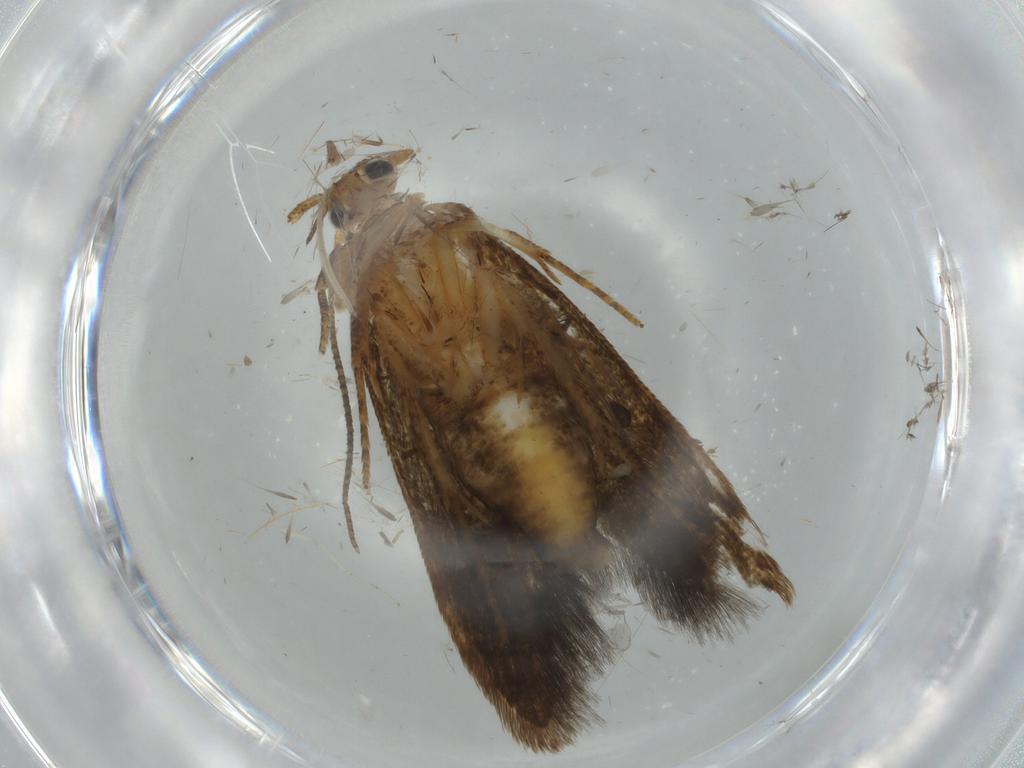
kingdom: Animalia
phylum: Arthropoda
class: Insecta
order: Lepidoptera
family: Blastobasidae
